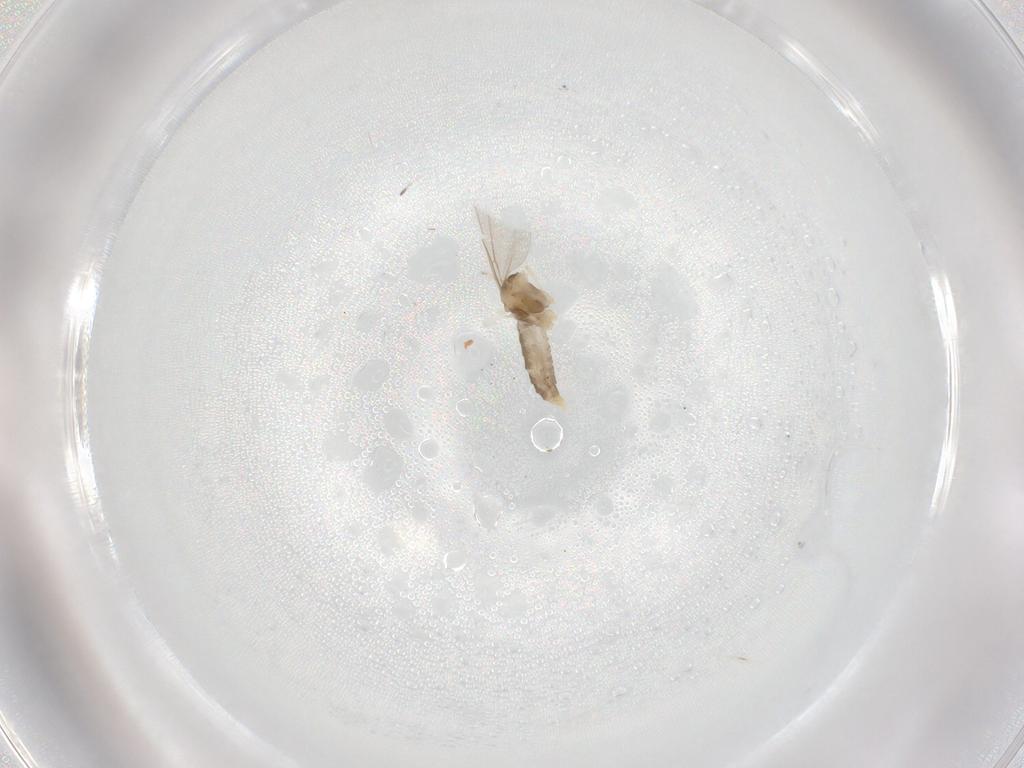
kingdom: Animalia
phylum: Arthropoda
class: Insecta
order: Diptera
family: Cecidomyiidae
